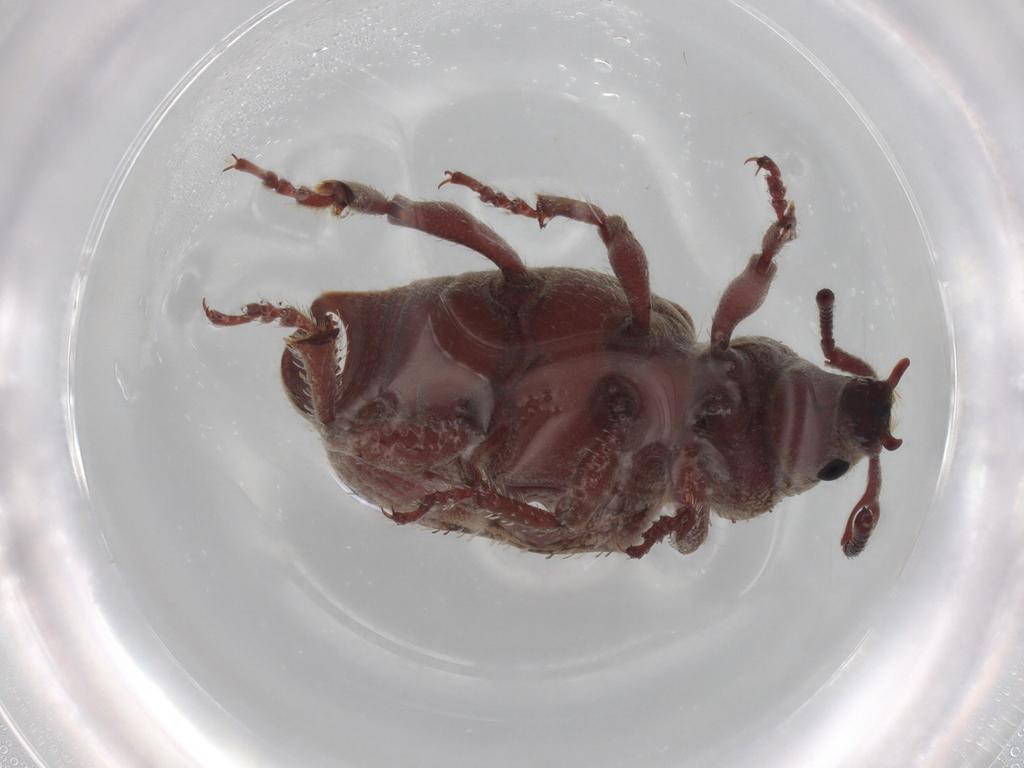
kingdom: Animalia
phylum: Arthropoda
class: Insecta
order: Coleoptera
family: Curculionidae
